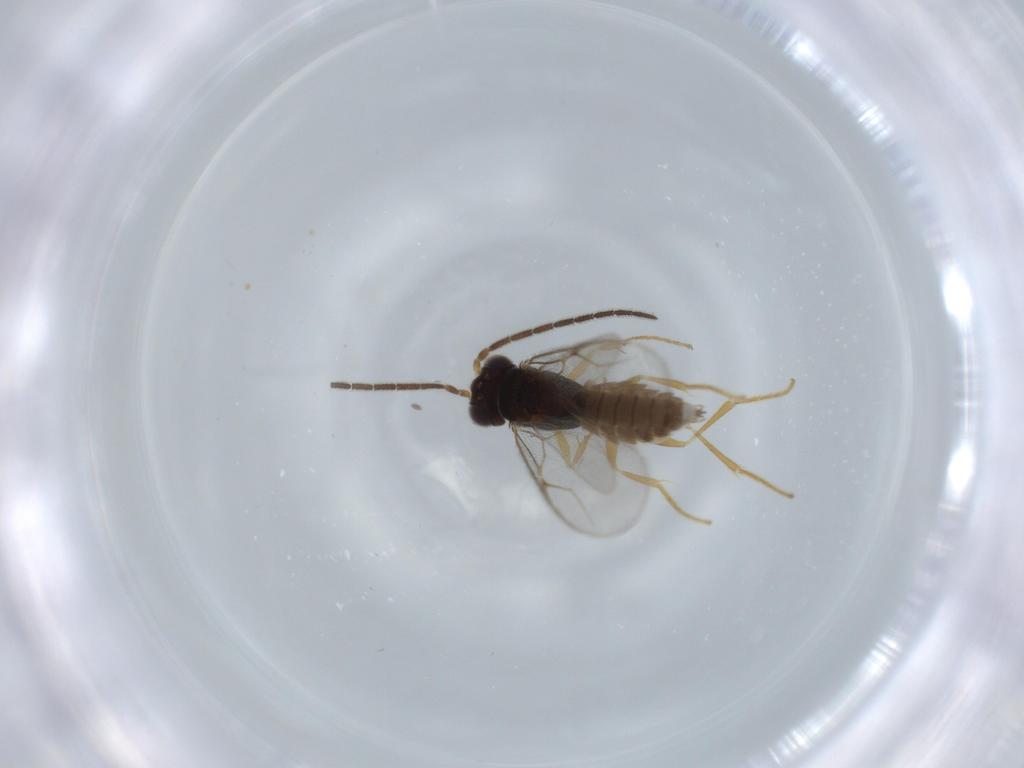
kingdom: Animalia
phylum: Arthropoda
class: Insecta
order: Hymenoptera
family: Dryinidae
